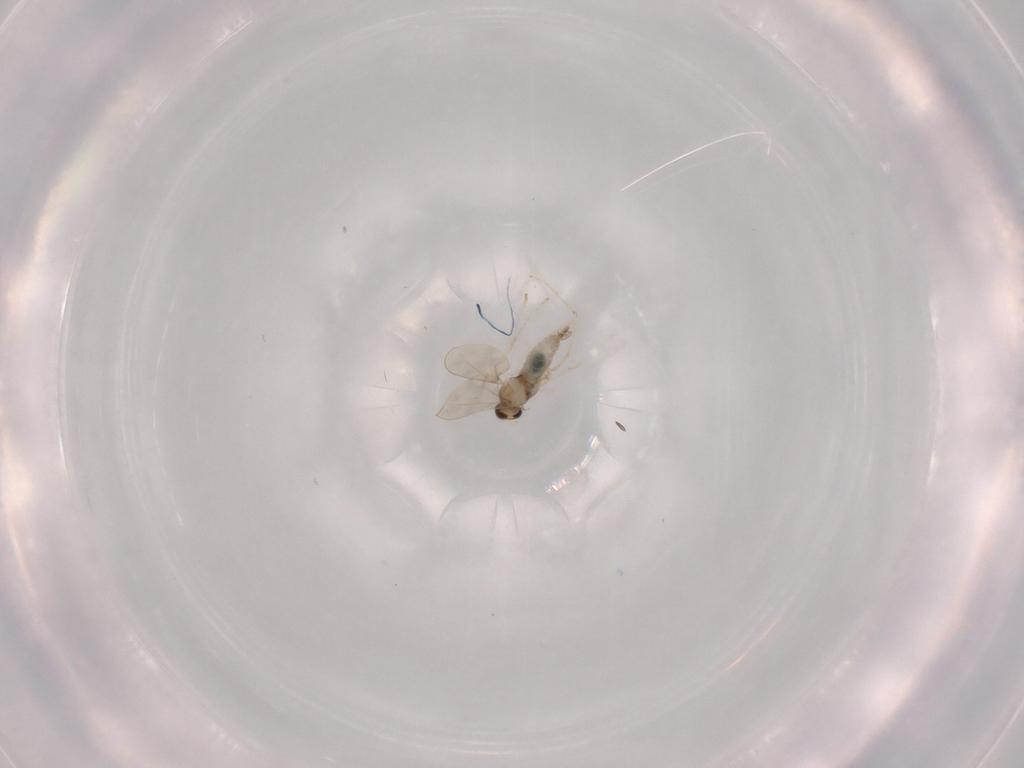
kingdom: Animalia
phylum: Arthropoda
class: Insecta
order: Diptera
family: Chironomidae
